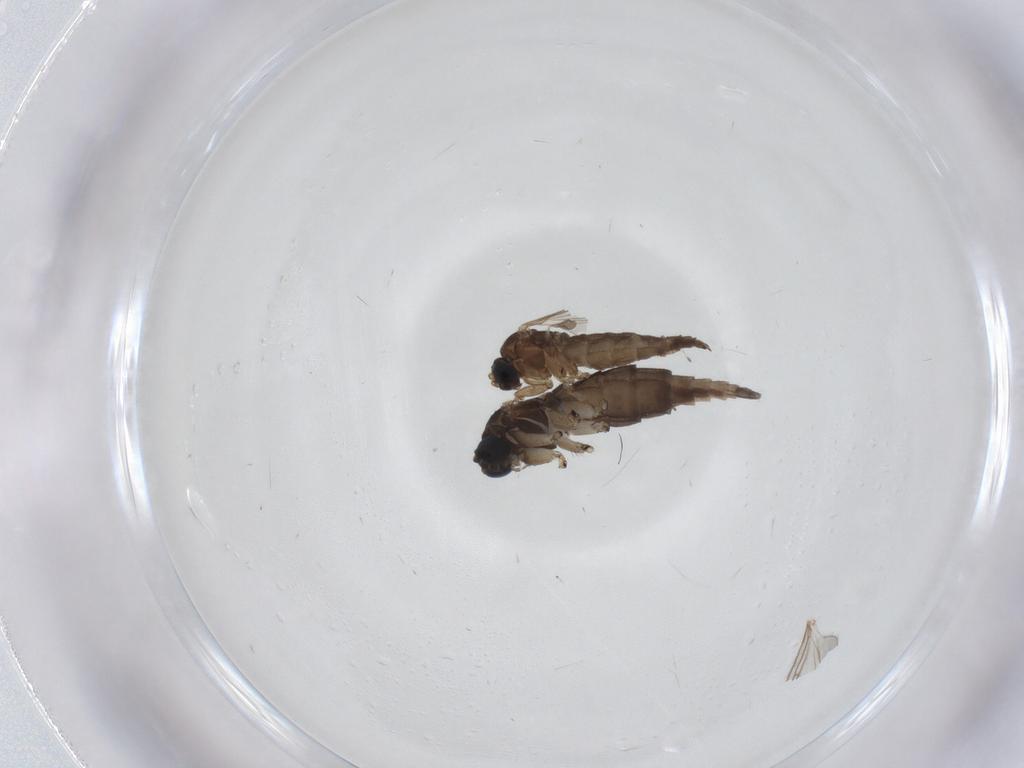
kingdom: Animalia
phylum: Arthropoda
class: Insecta
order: Diptera
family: Sciaridae
